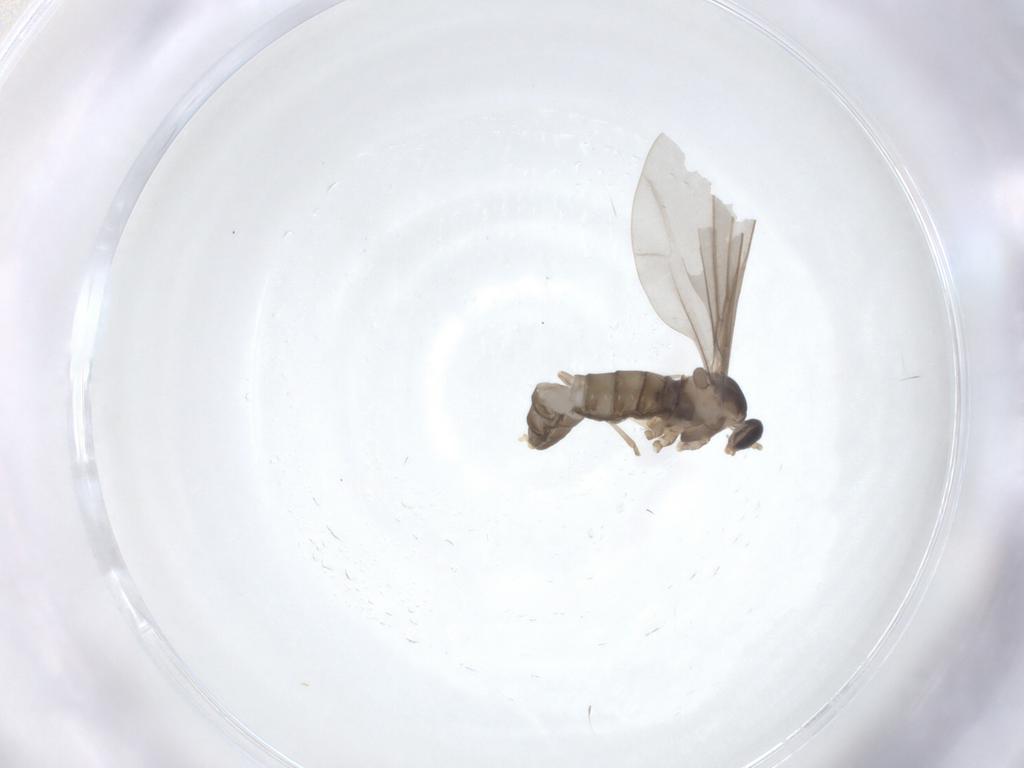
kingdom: Animalia
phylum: Arthropoda
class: Insecta
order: Diptera
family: Cecidomyiidae
